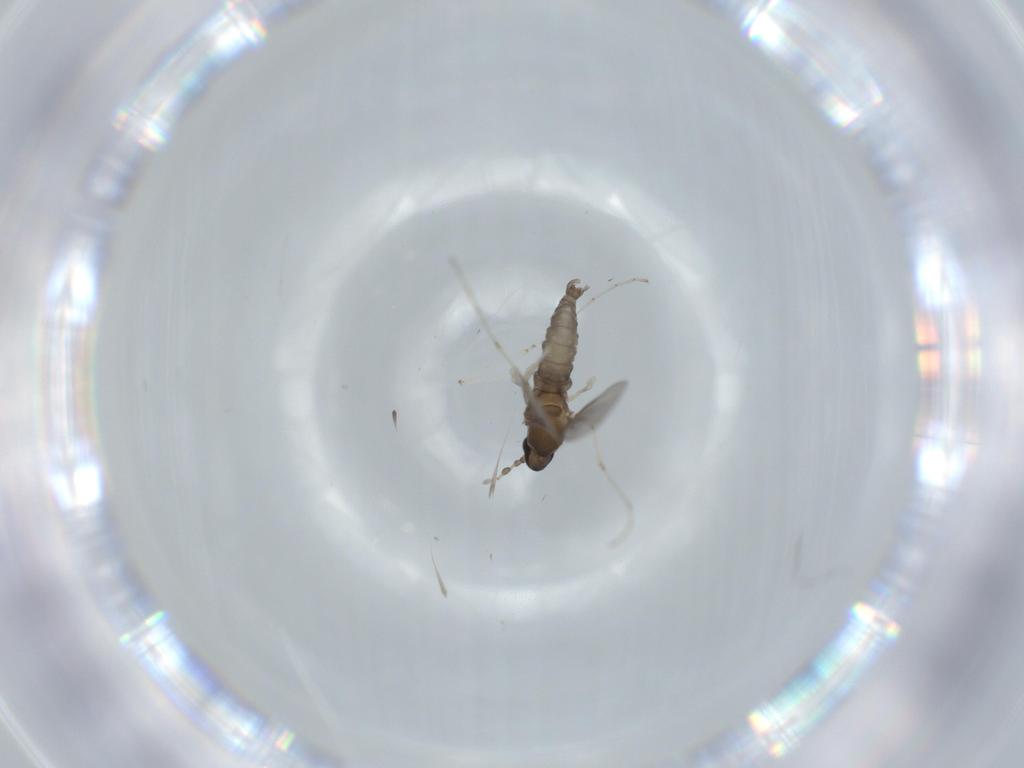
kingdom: Animalia
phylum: Arthropoda
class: Insecta
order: Diptera
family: Cecidomyiidae
